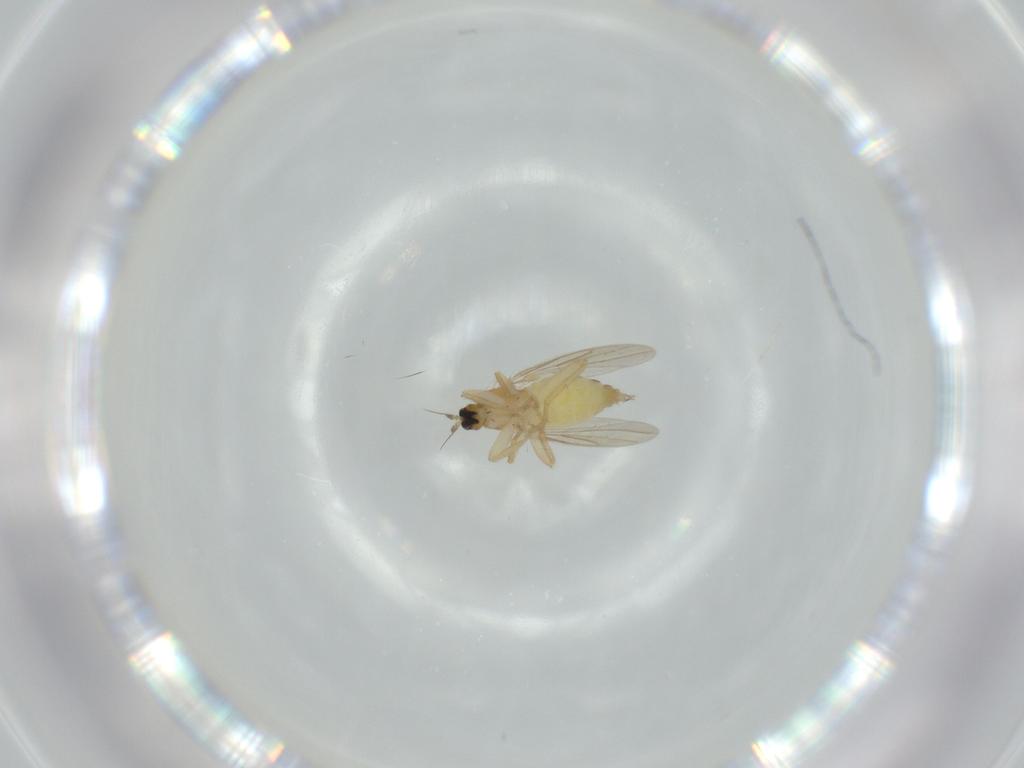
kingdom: Animalia
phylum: Arthropoda
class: Insecta
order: Diptera
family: Hybotidae
